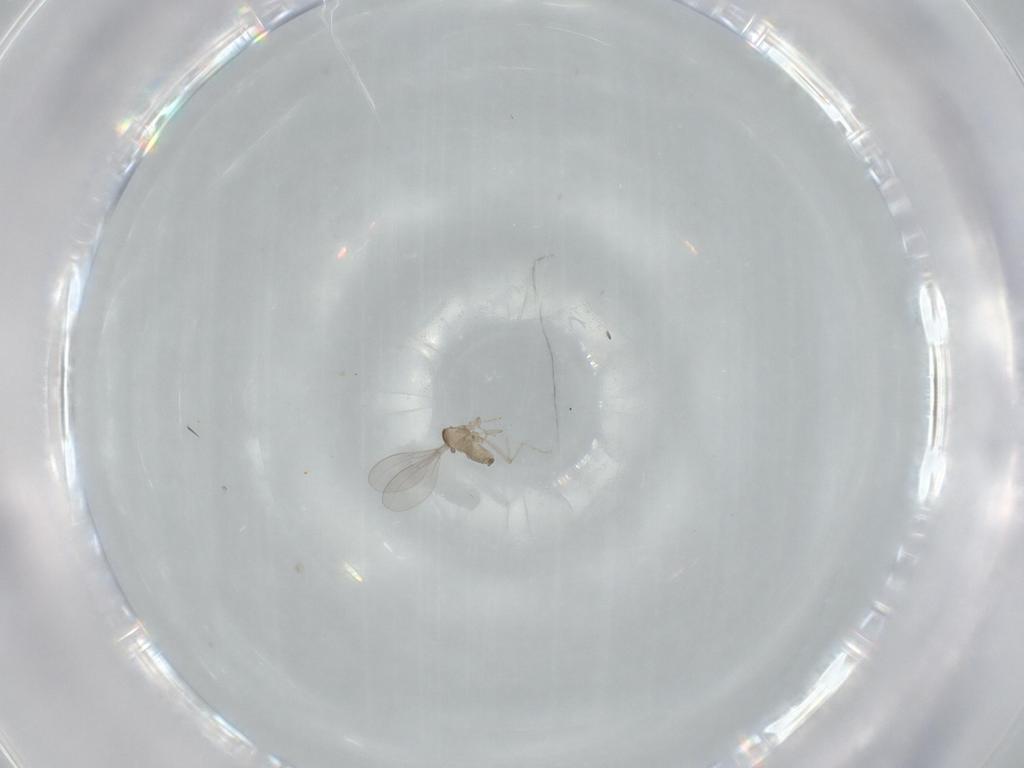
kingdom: Animalia
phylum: Arthropoda
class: Insecta
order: Diptera
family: Cecidomyiidae
